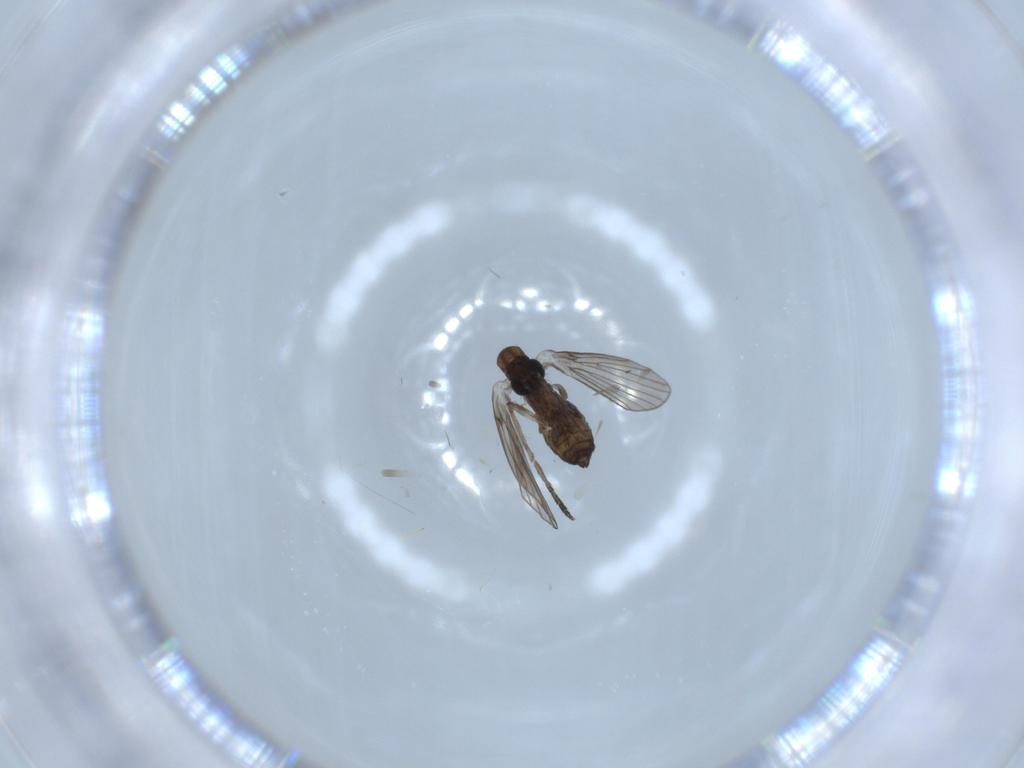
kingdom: Animalia
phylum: Arthropoda
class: Insecta
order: Diptera
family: Psychodidae
